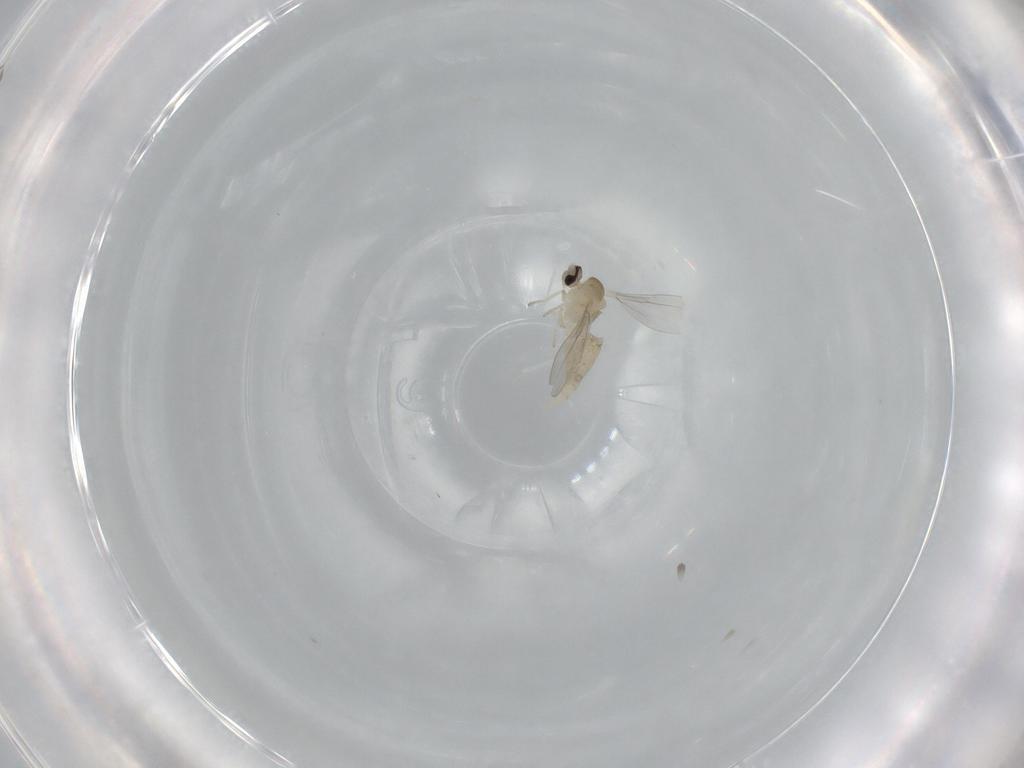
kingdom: Animalia
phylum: Arthropoda
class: Insecta
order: Diptera
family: Cecidomyiidae
